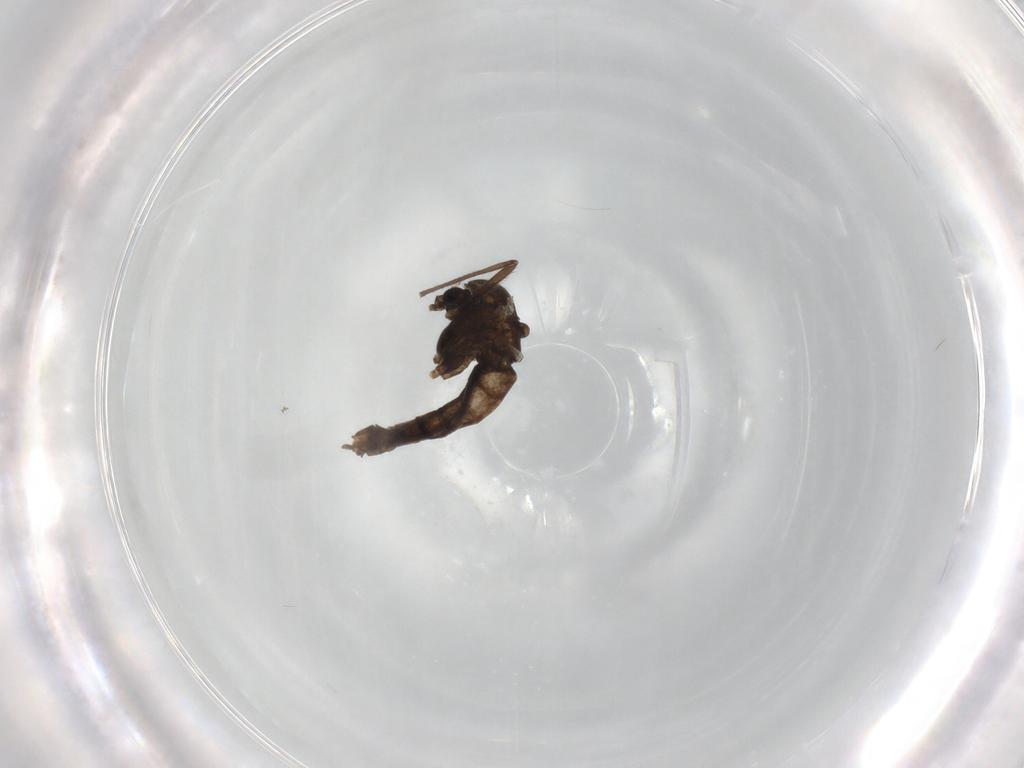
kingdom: Animalia
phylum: Arthropoda
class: Insecta
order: Diptera
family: Chironomidae
